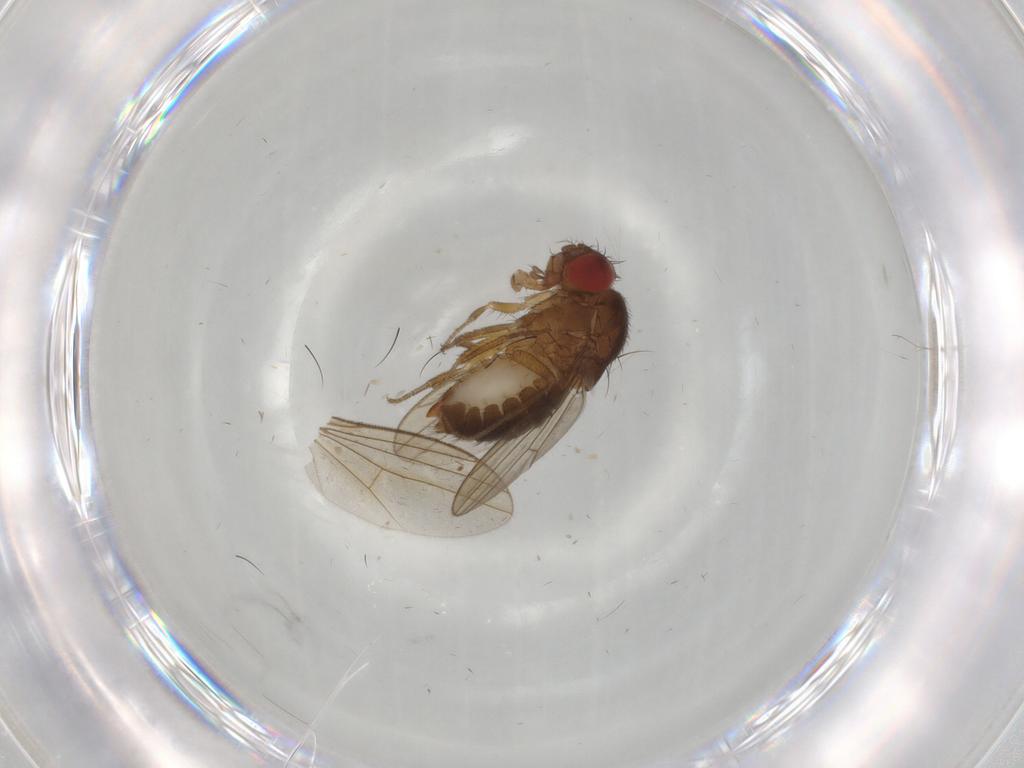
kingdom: Animalia
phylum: Arthropoda
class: Insecta
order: Diptera
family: Drosophilidae
